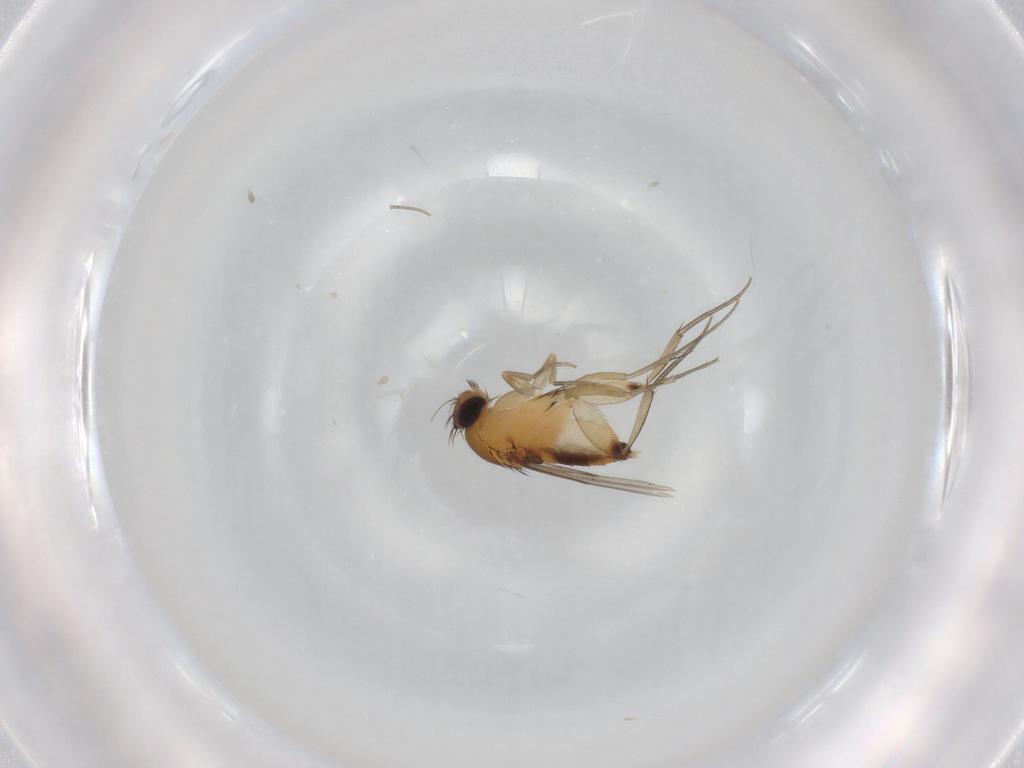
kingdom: Animalia
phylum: Arthropoda
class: Insecta
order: Diptera
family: Phoridae
